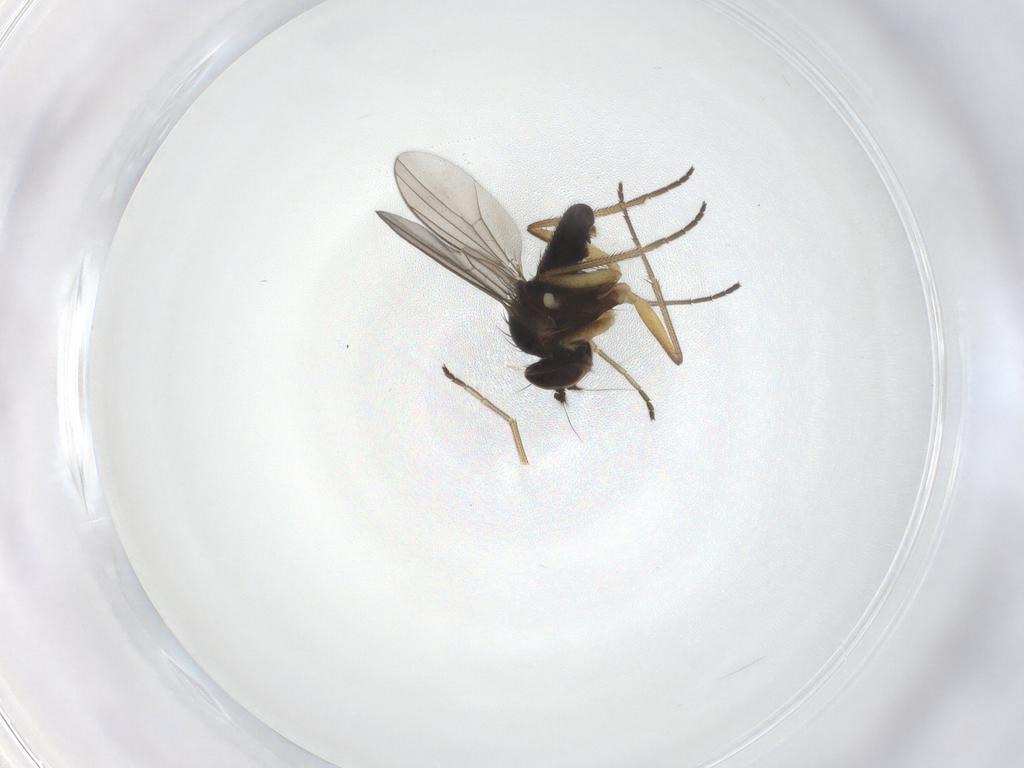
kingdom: Animalia
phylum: Arthropoda
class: Insecta
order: Diptera
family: Dolichopodidae
